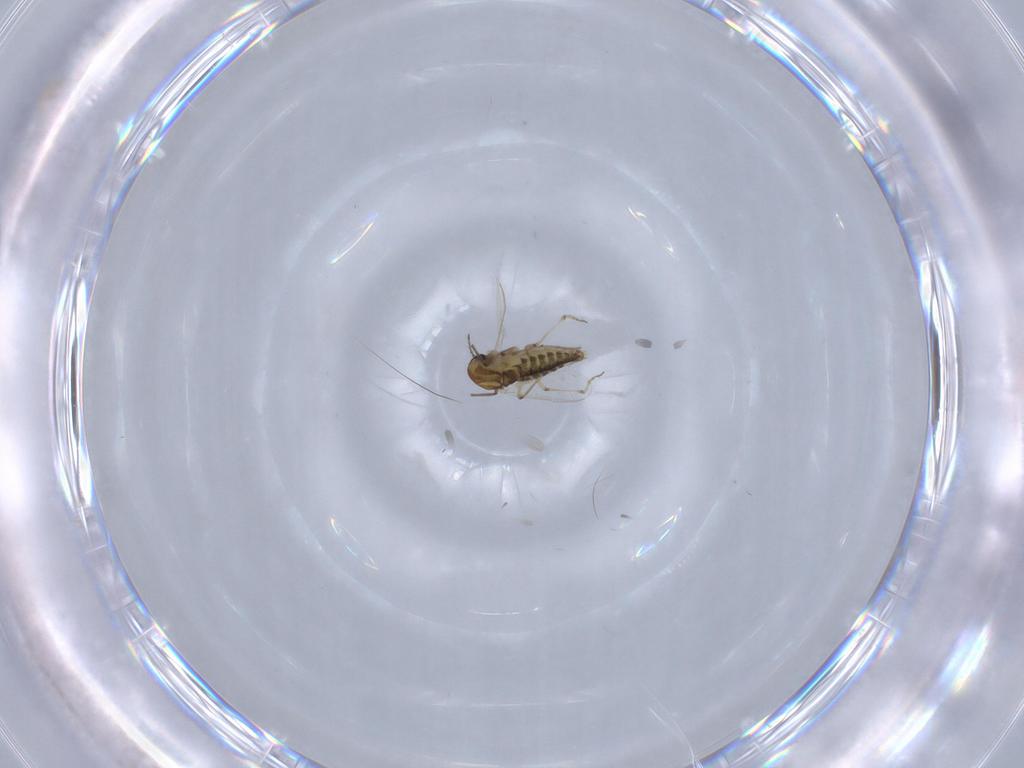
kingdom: Animalia
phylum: Arthropoda
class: Insecta
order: Diptera
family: Chironomidae
